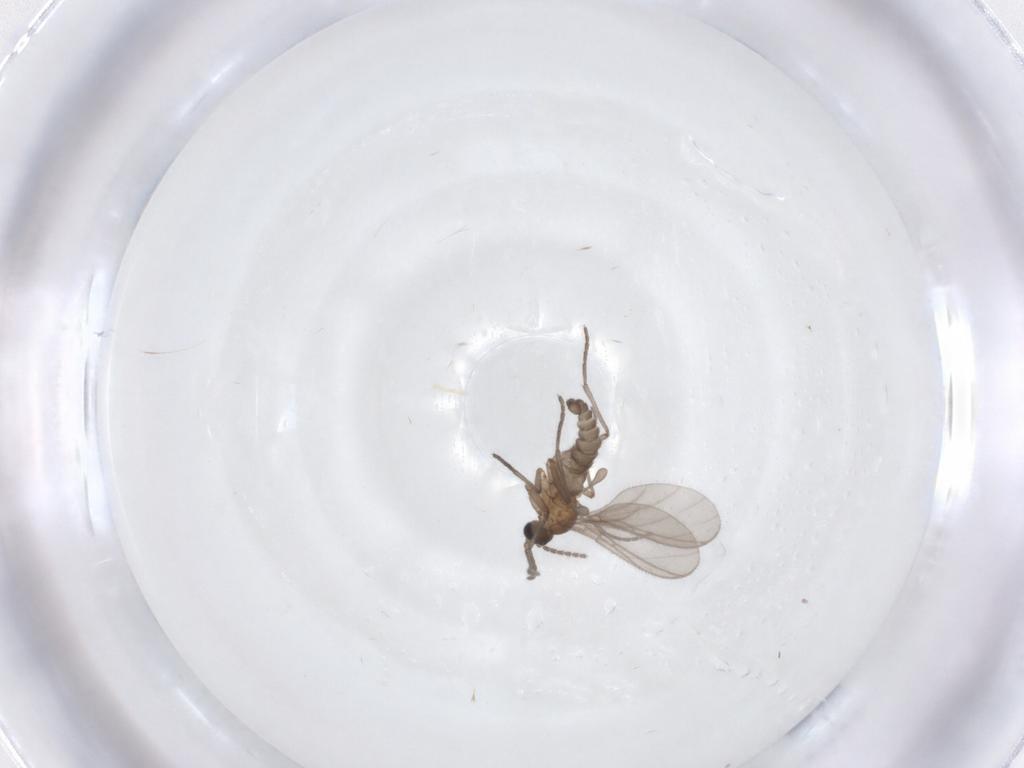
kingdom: Animalia
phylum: Arthropoda
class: Insecta
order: Diptera
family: Sciaridae
